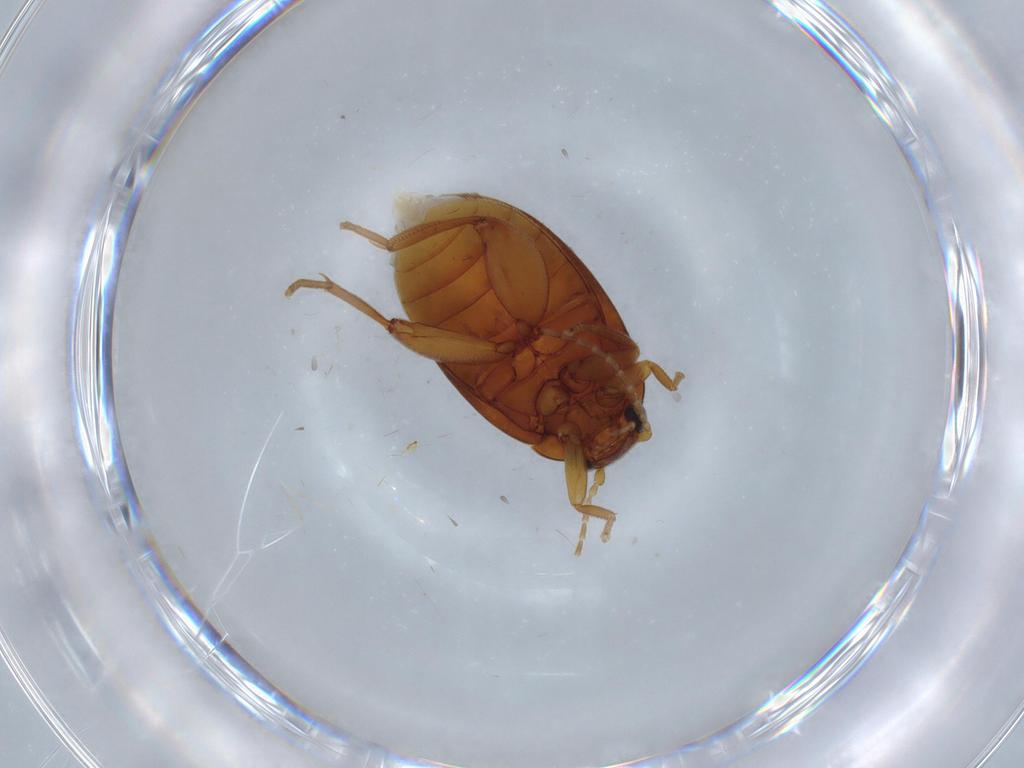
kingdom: Animalia
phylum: Arthropoda
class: Insecta
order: Coleoptera
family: Scirtidae
